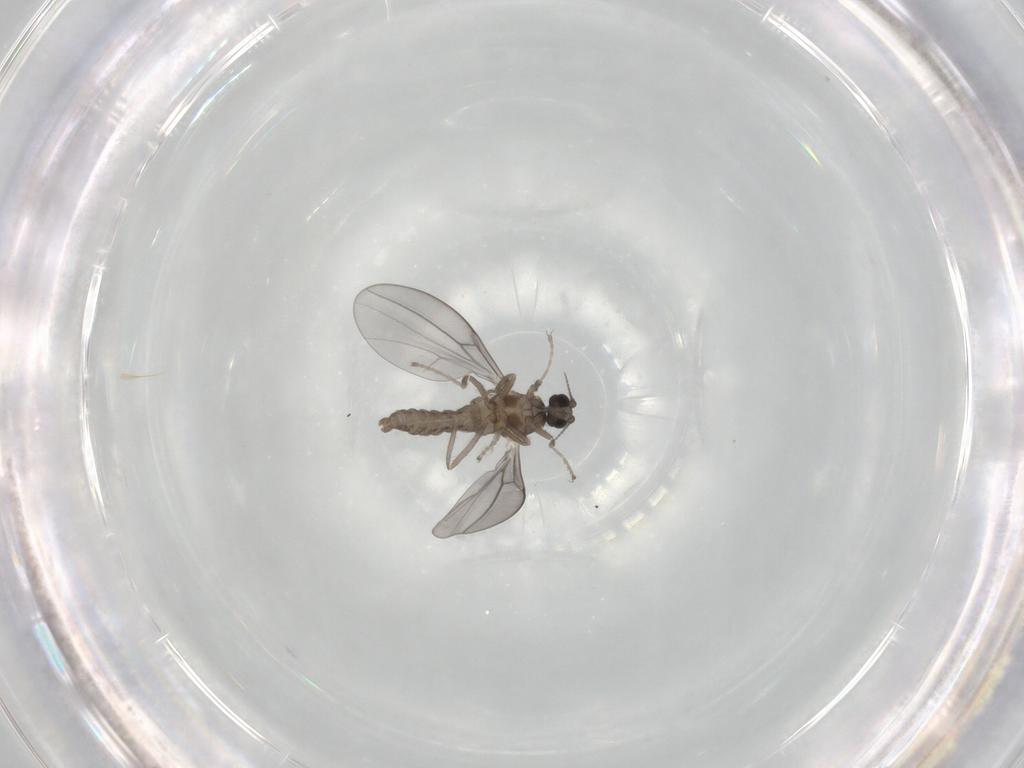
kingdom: Animalia
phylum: Arthropoda
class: Insecta
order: Diptera
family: Cecidomyiidae
